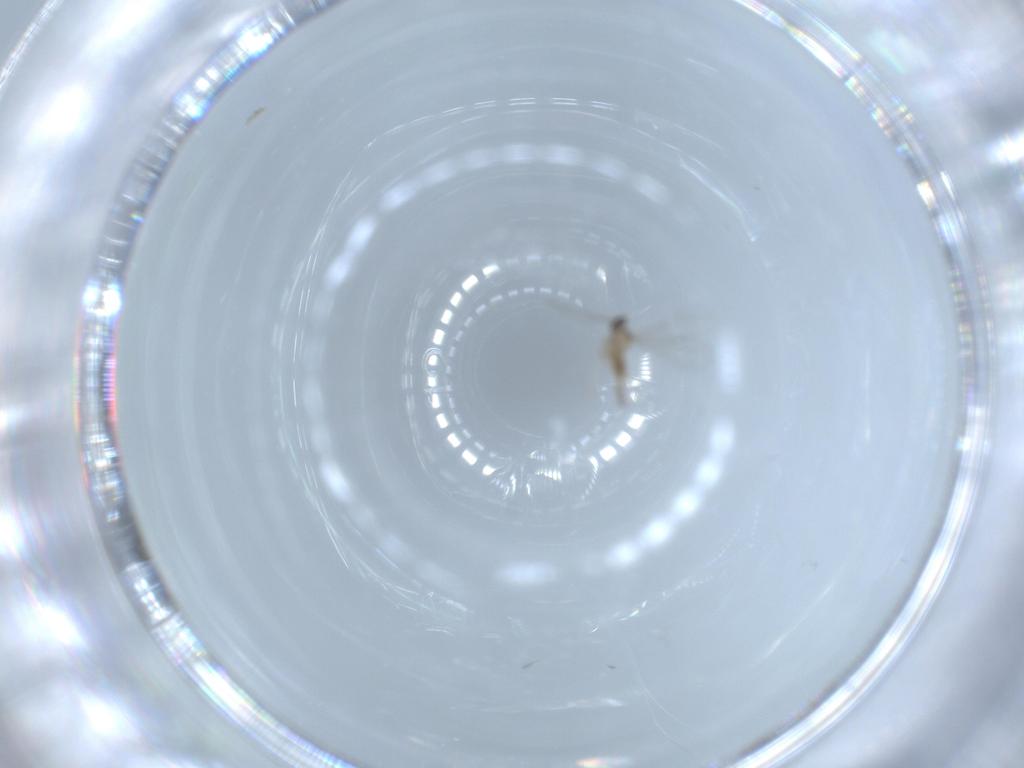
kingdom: Animalia
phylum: Arthropoda
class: Insecta
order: Diptera
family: Cecidomyiidae
